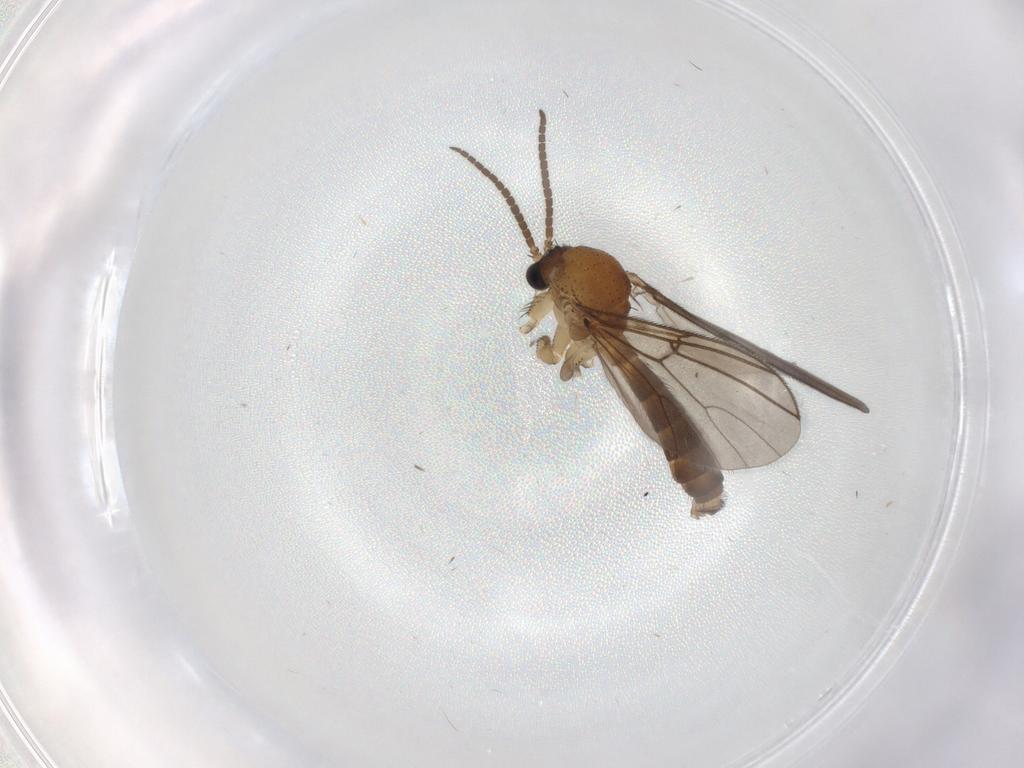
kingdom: Animalia
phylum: Arthropoda
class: Insecta
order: Diptera
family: Sciaridae
